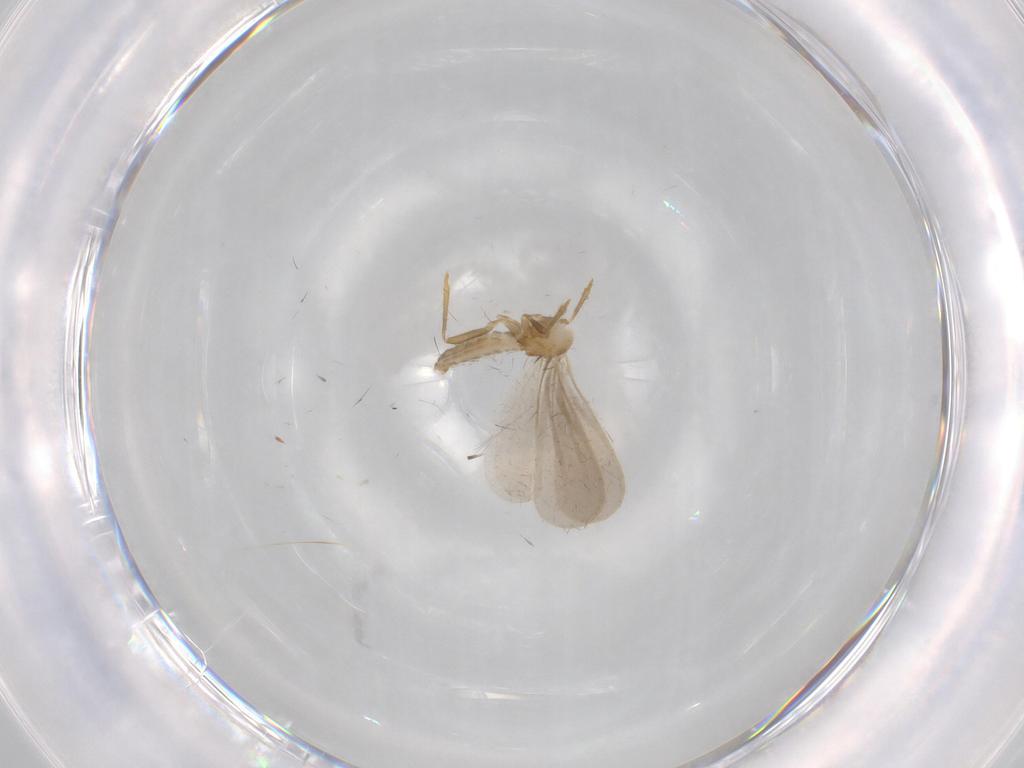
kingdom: Animalia
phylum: Arthropoda
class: Insecta
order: Hemiptera
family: Enicocephalidae
